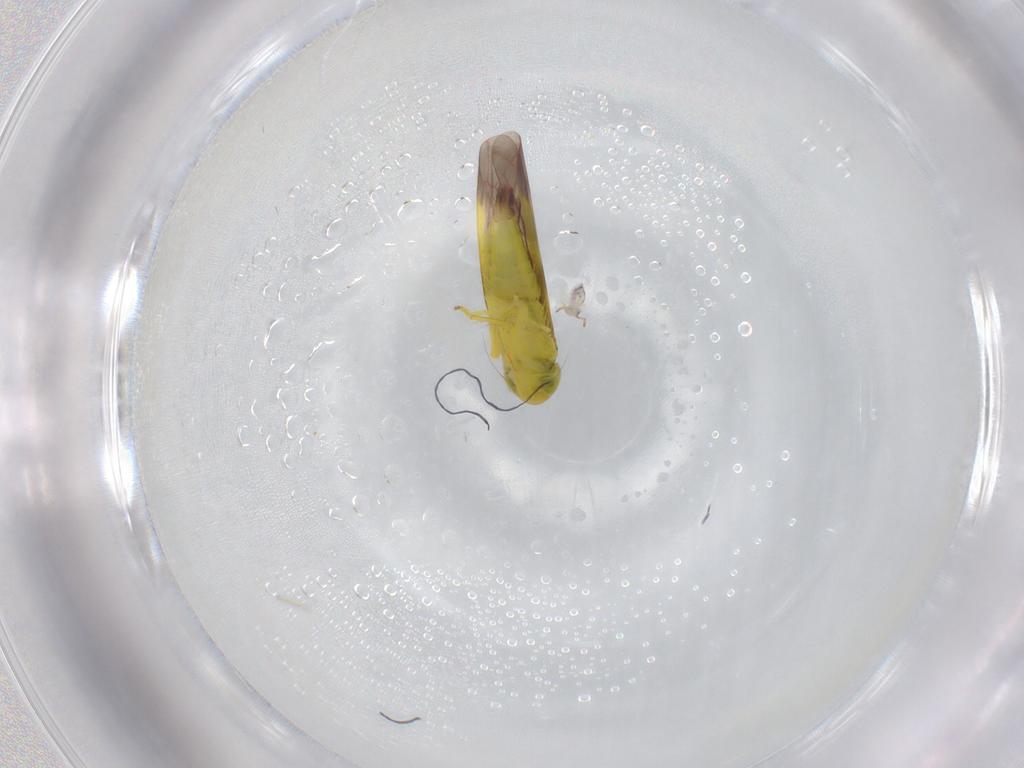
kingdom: Animalia
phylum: Arthropoda
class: Insecta
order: Hemiptera
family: Cicadellidae
